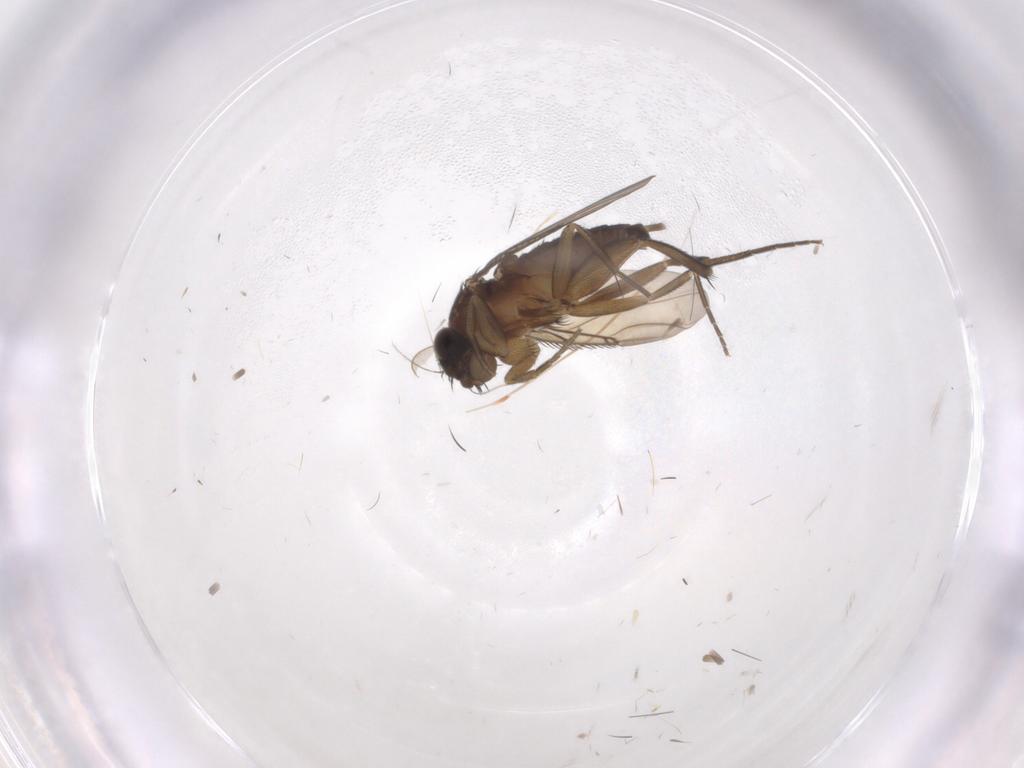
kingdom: Animalia
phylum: Arthropoda
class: Insecta
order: Diptera
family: Phoridae
